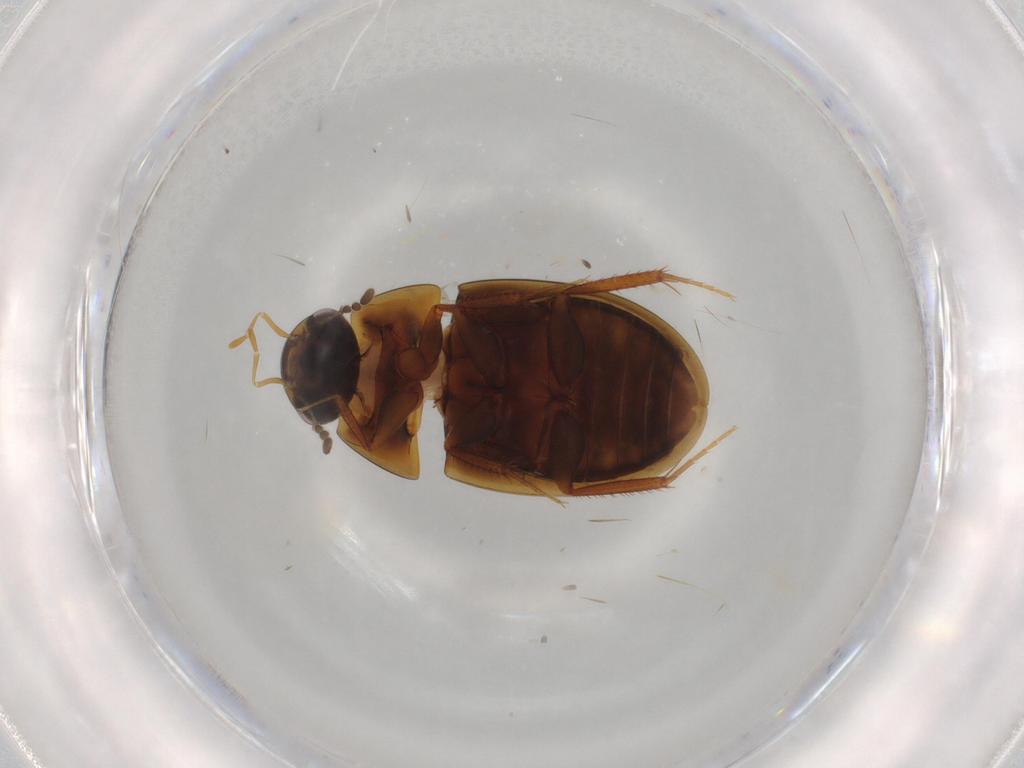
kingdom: Animalia
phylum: Arthropoda
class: Insecta
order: Coleoptera
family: Hydrophilidae
